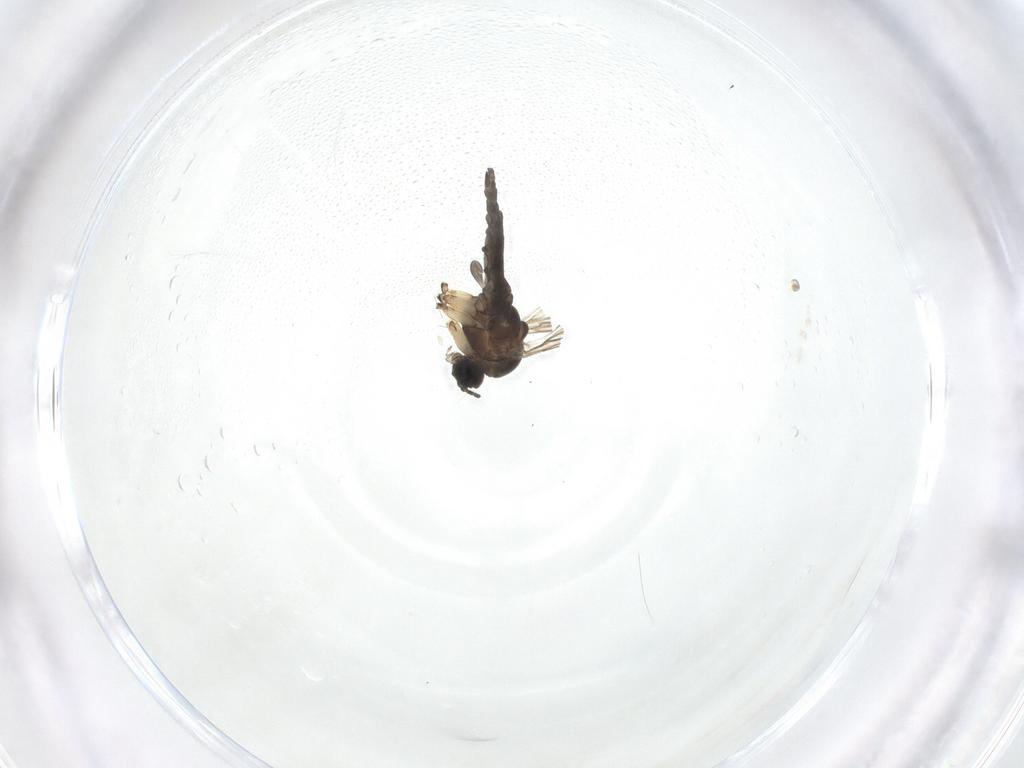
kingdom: Animalia
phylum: Arthropoda
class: Insecta
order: Diptera
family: Sciaridae
